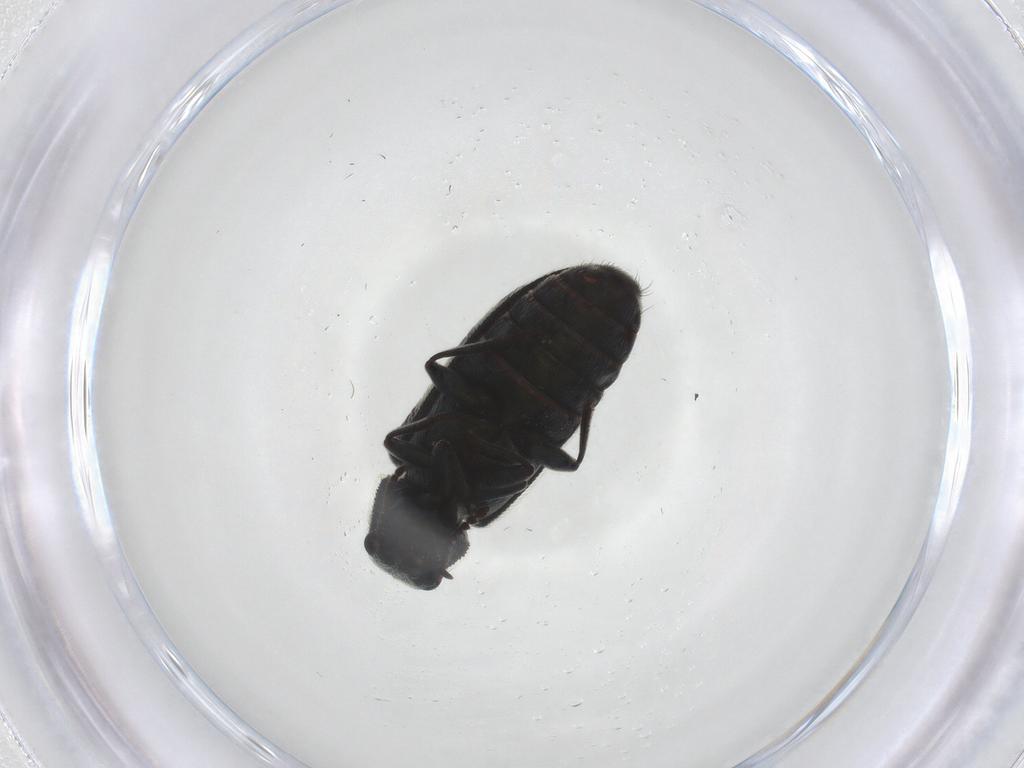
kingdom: Animalia
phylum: Arthropoda
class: Insecta
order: Coleoptera
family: Melyridae
